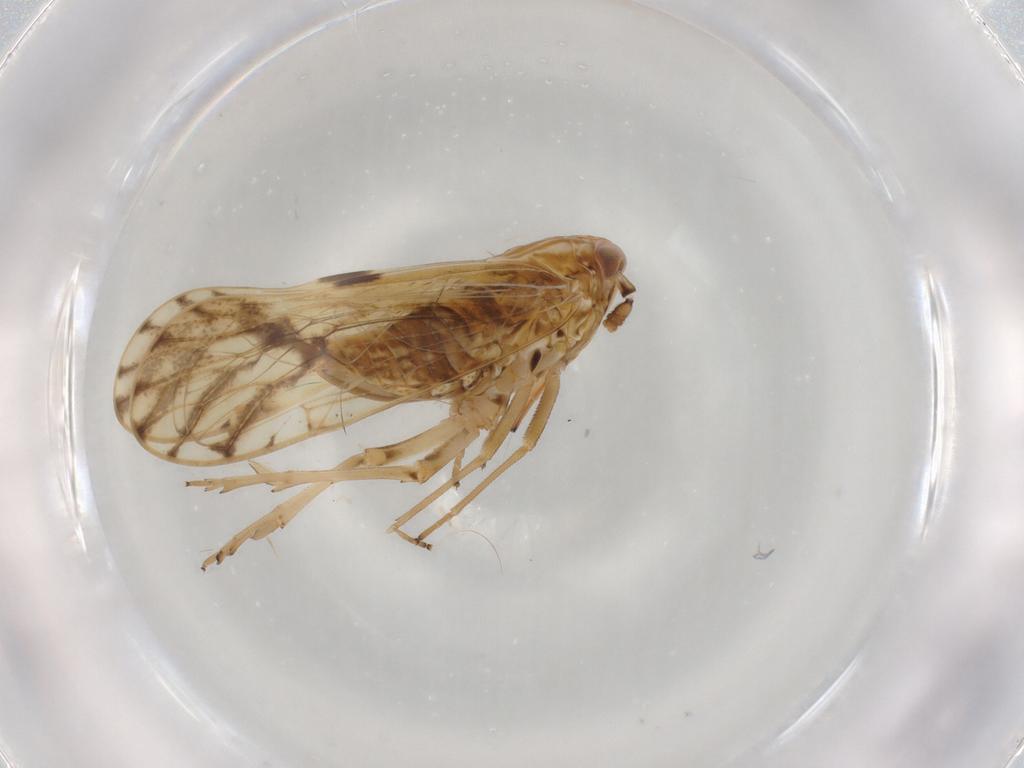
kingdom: Animalia
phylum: Arthropoda
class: Insecta
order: Hemiptera
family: Delphacidae
